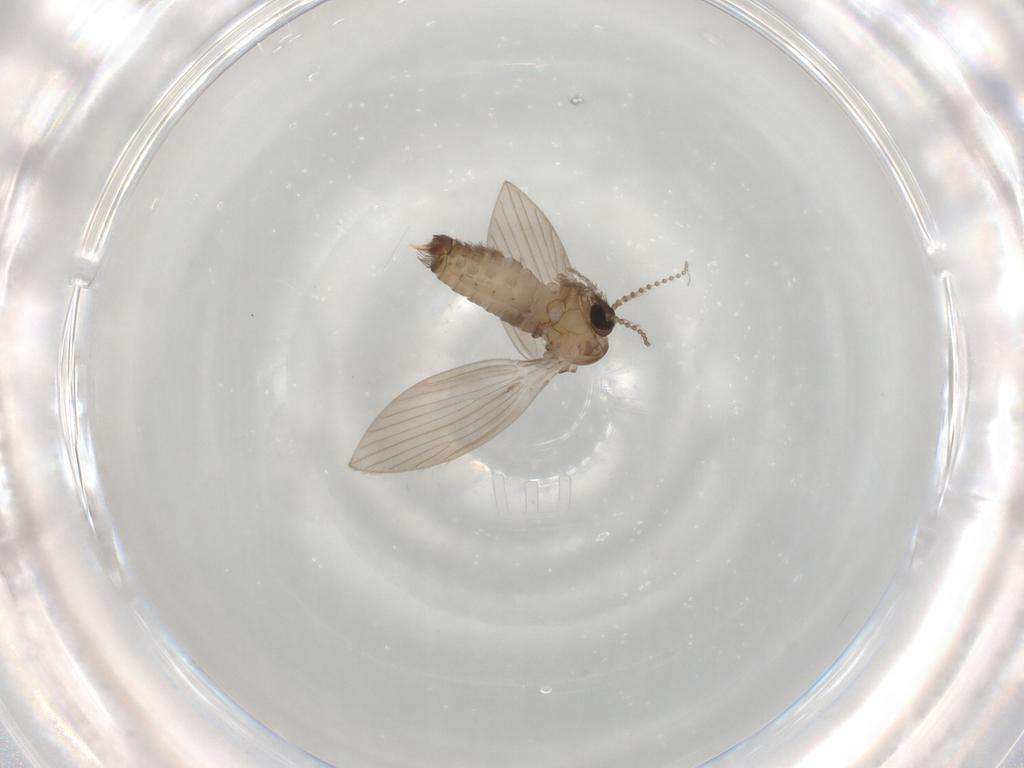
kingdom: Animalia
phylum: Arthropoda
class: Insecta
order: Diptera
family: Psychodidae
